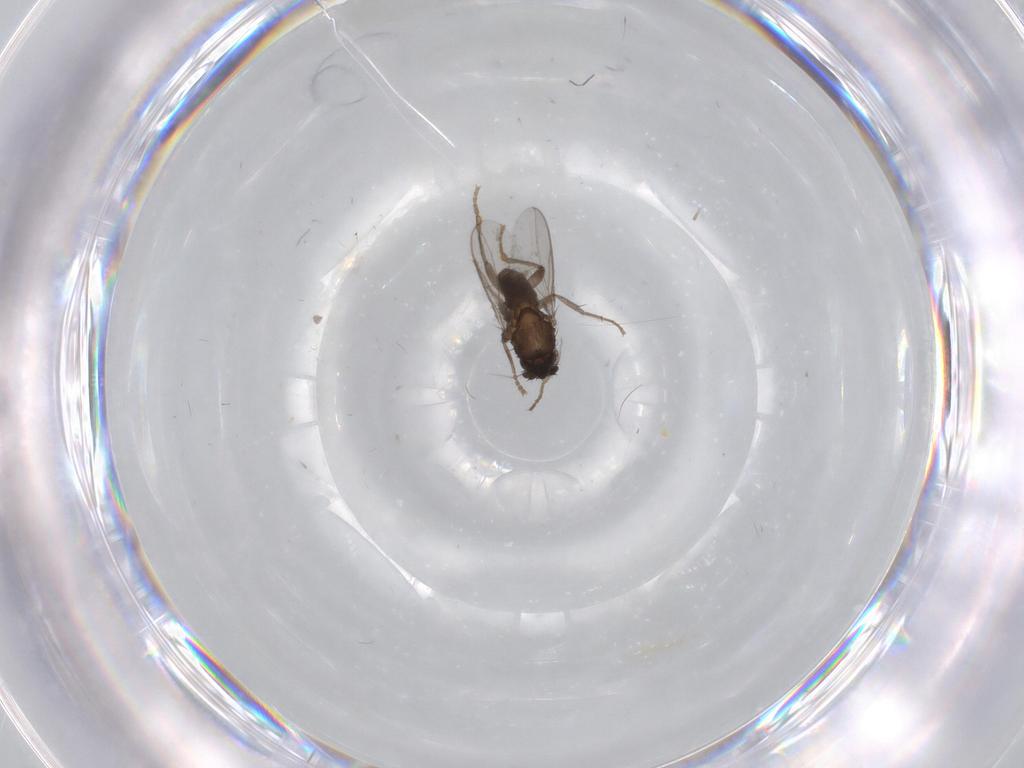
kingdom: Animalia
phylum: Arthropoda
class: Insecta
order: Diptera
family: Sphaeroceridae
